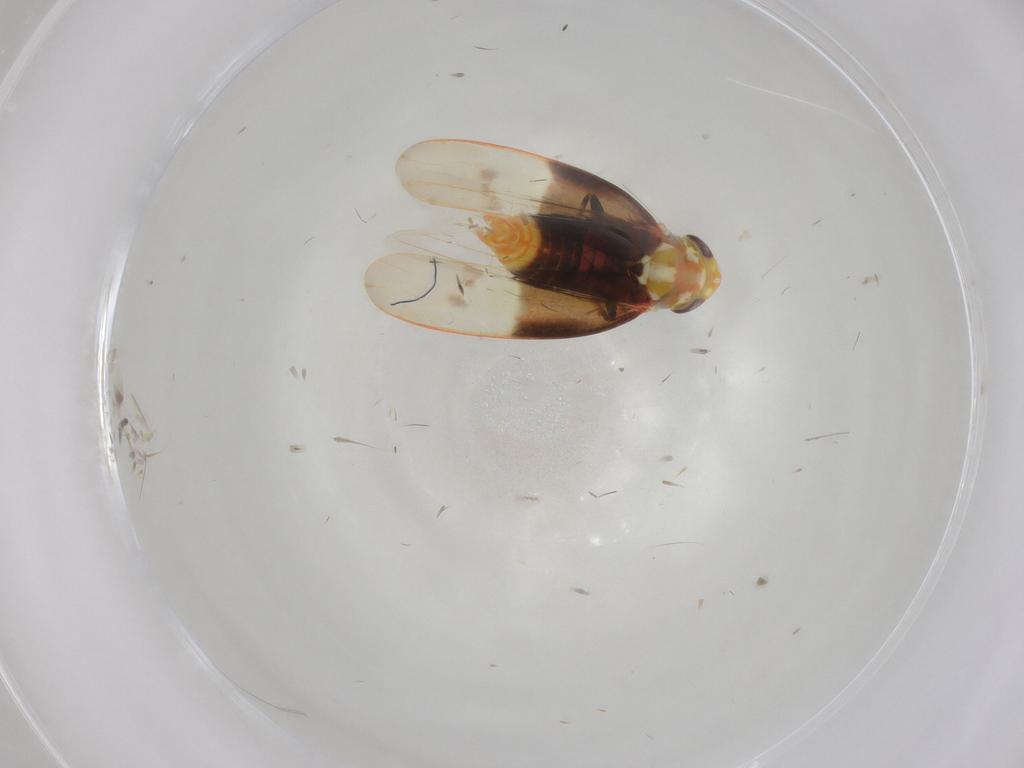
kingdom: Animalia
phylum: Arthropoda
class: Insecta
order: Hemiptera
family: Cicadellidae
